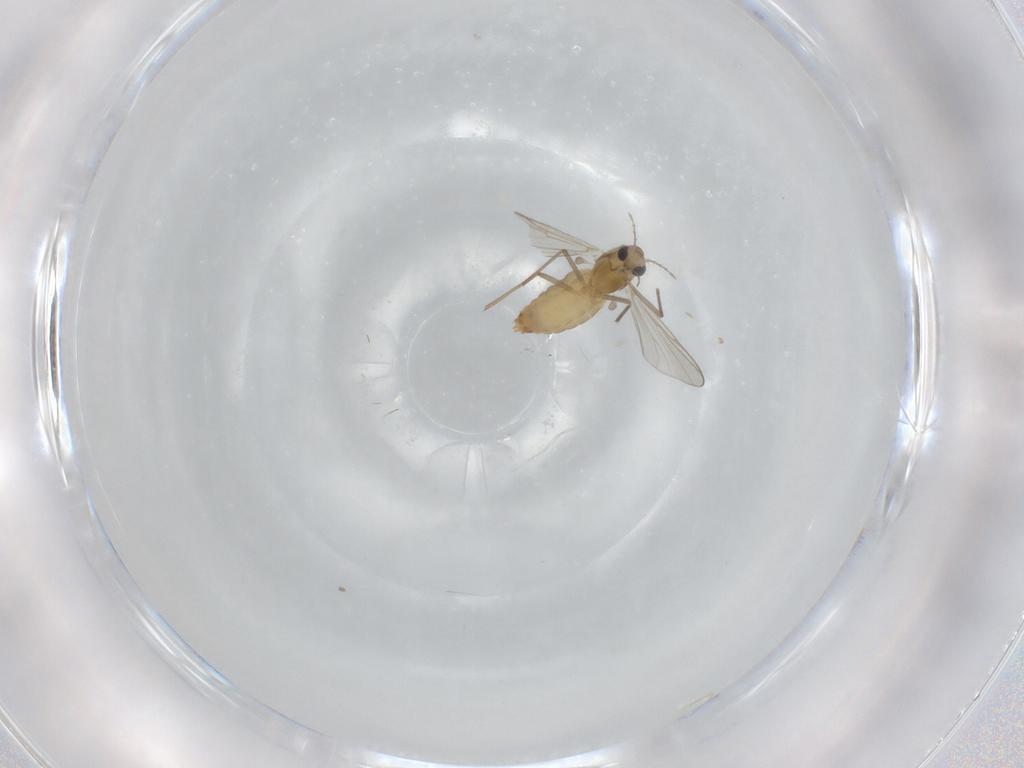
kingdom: Animalia
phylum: Arthropoda
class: Insecta
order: Diptera
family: Chironomidae
